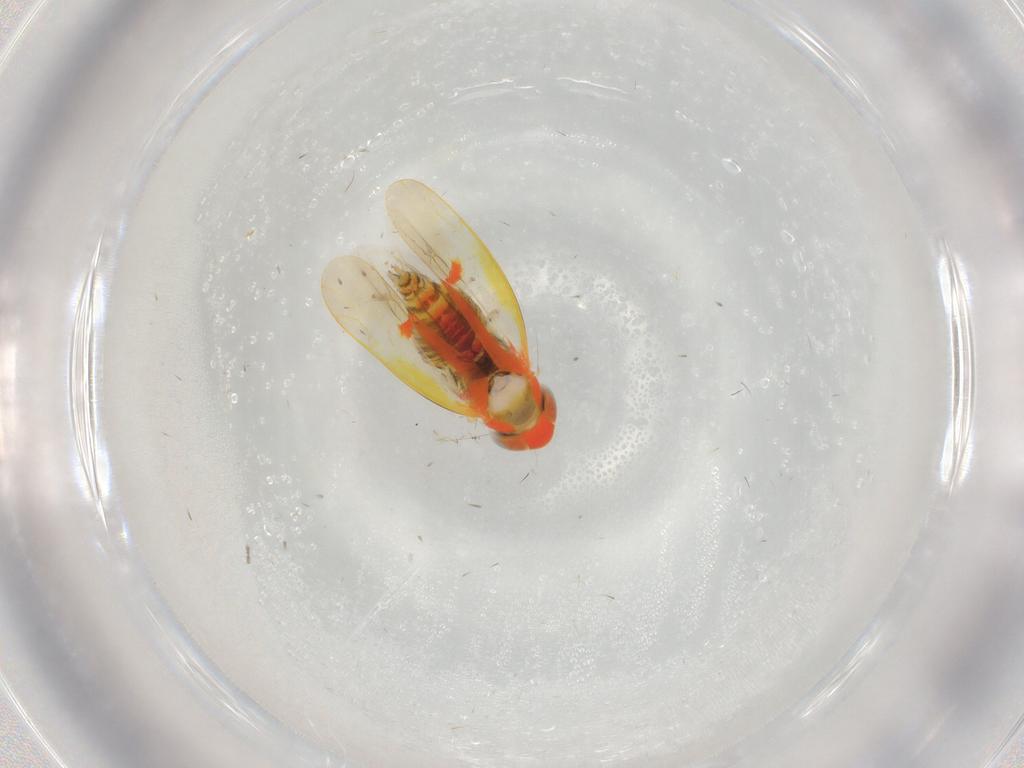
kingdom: Animalia
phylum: Arthropoda
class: Insecta
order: Hemiptera
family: Cicadellidae
